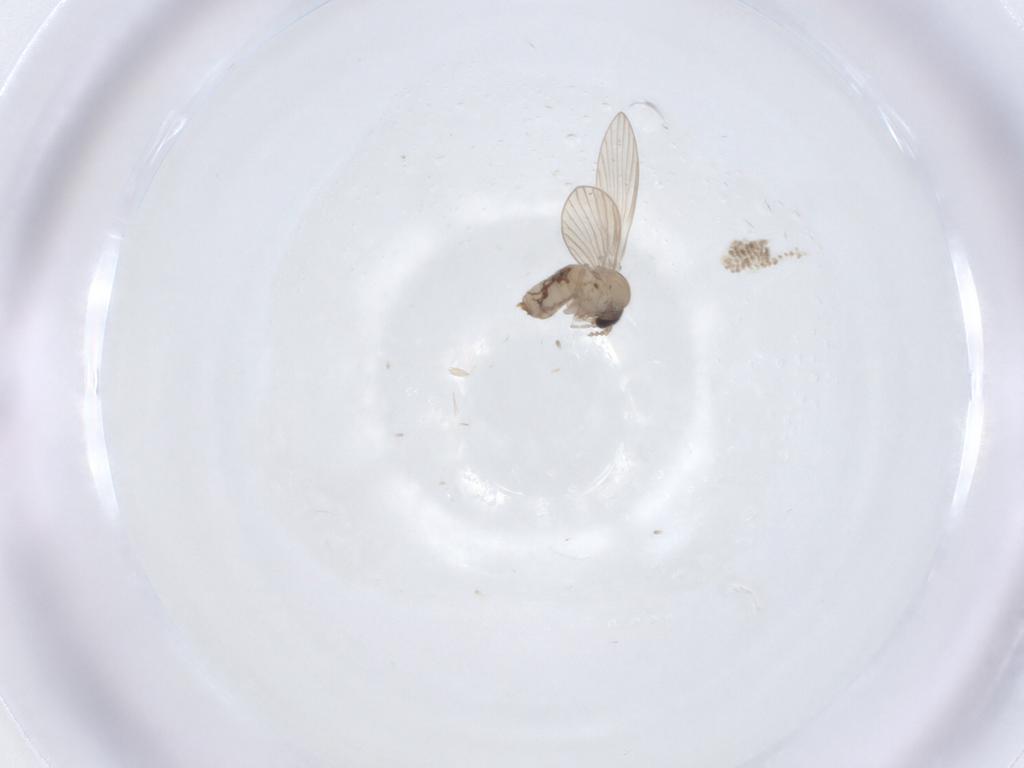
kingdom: Animalia
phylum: Arthropoda
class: Insecta
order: Diptera
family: Psychodidae
